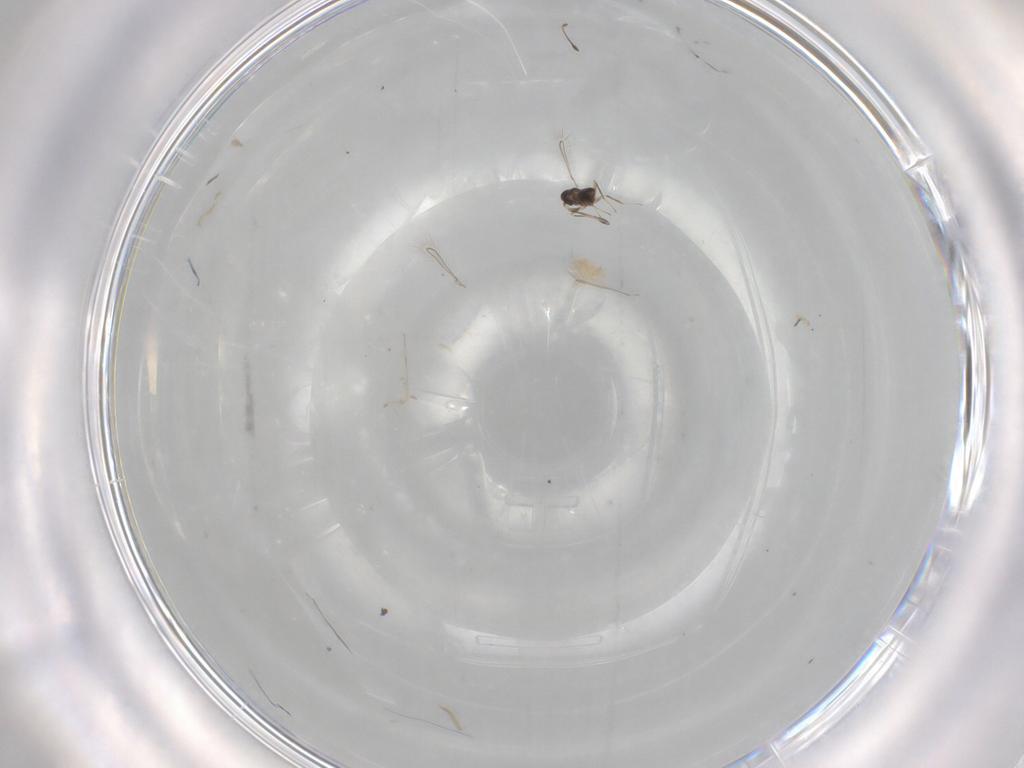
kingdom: Animalia
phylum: Arthropoda
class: Insecta
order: Hymenoptera
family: Mymaridae
